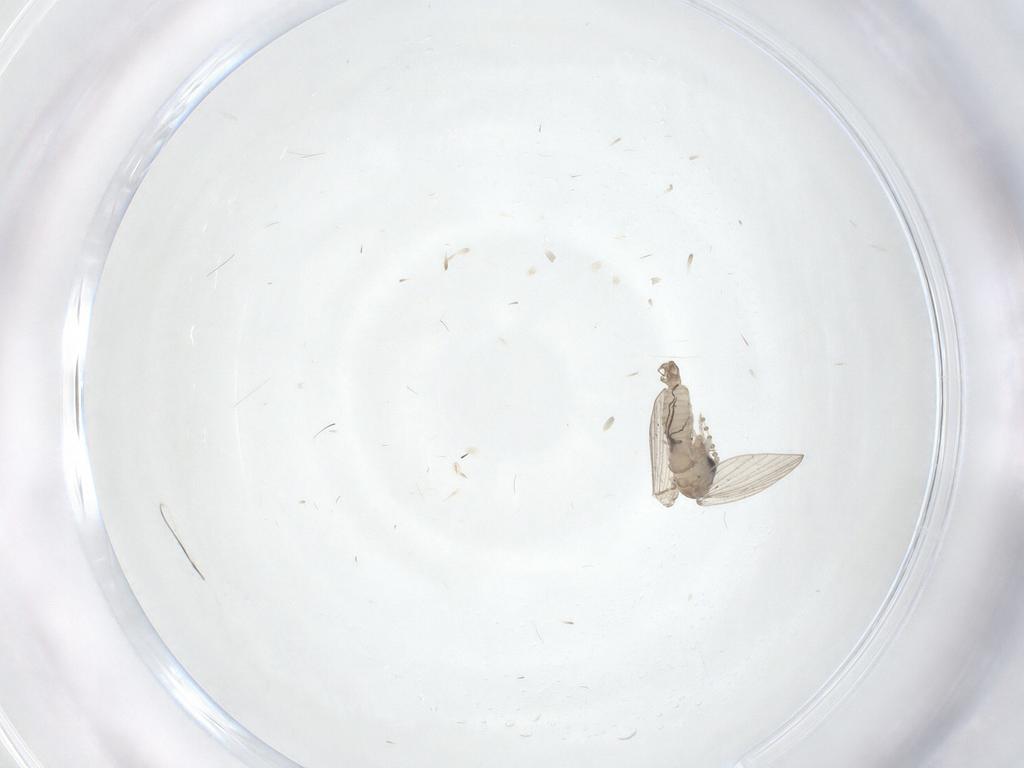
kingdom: Animalia
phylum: Arthropoda
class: Insecta
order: Diptera
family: Psychodidae
